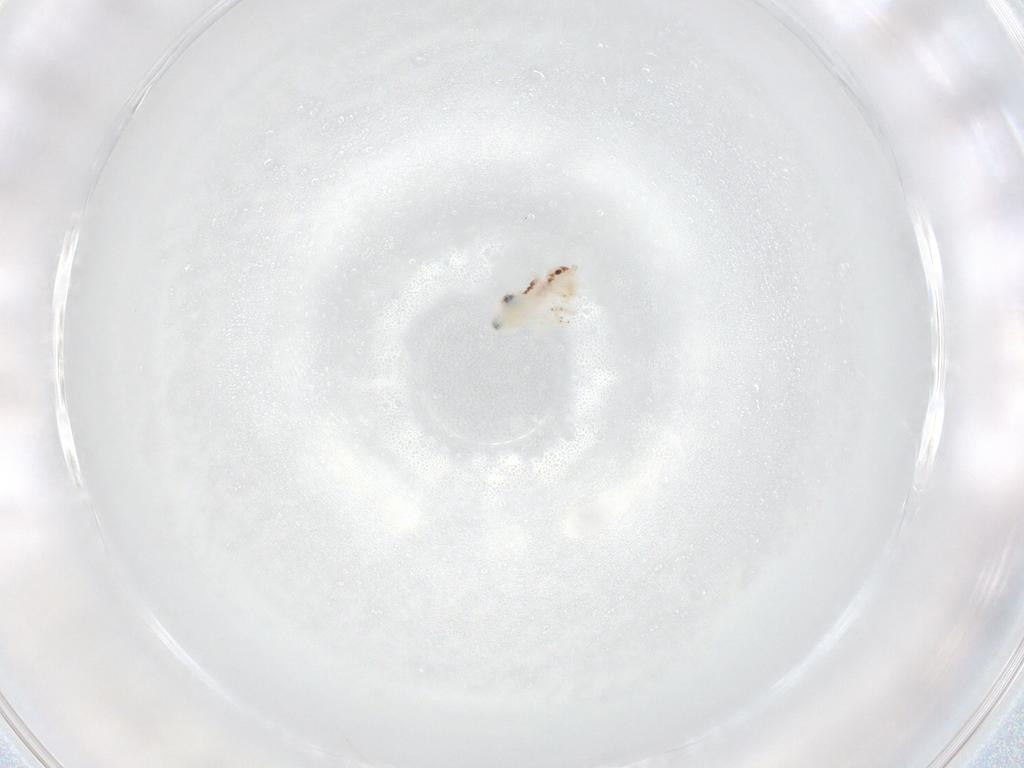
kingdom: Animalia
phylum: Arthropoda
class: Insecta
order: Psocodea
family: Amphipsocidae
